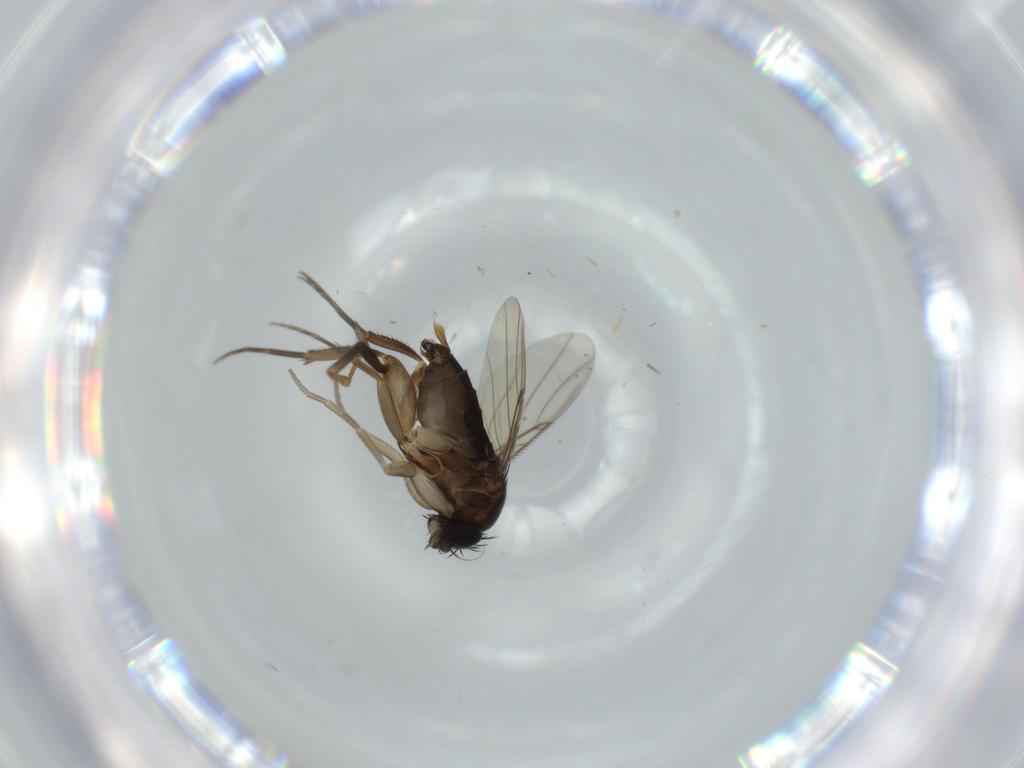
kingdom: Animalia
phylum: Arthropoda
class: Insecta
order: Diptera
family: Phoridae
